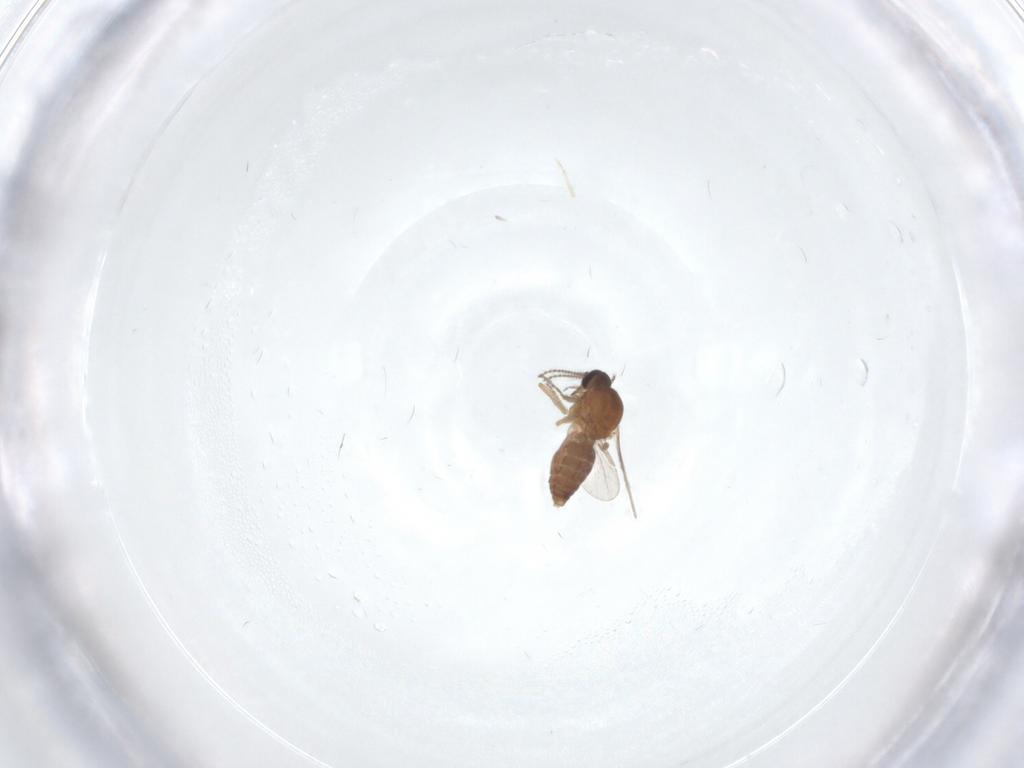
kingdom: Animalia
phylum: Arthropoda
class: Insecta
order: Diptera
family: Ceratopogonidae
